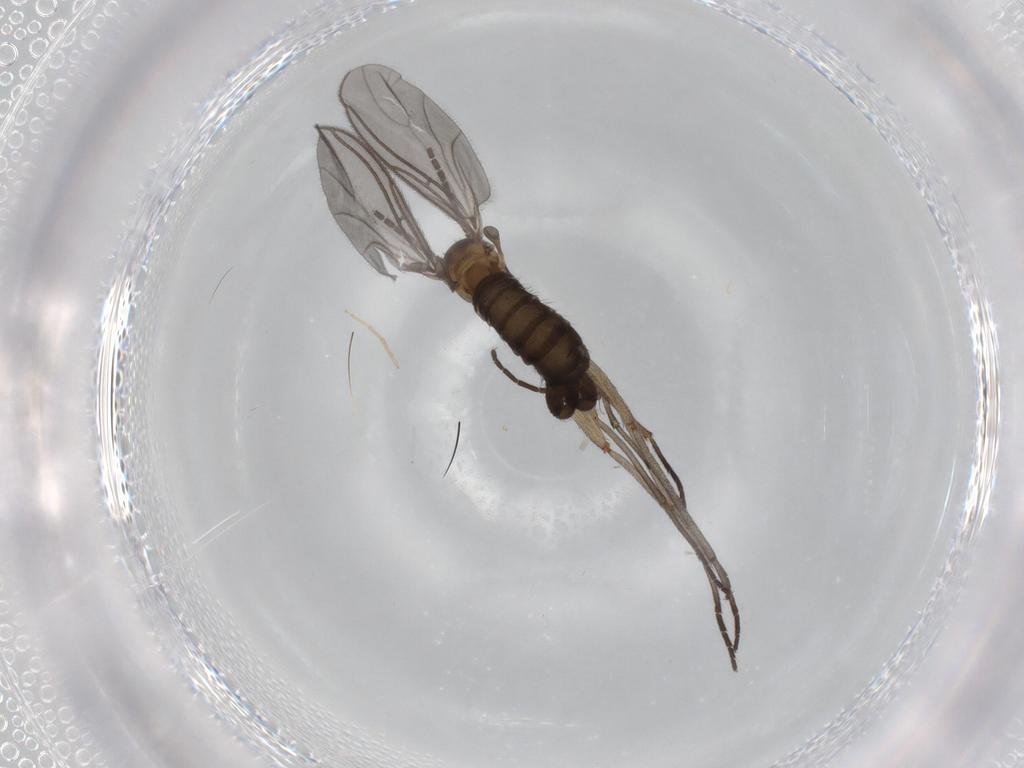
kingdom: Animalia
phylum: Arthropoda
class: Insecta
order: Diptera
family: Sciaridae
